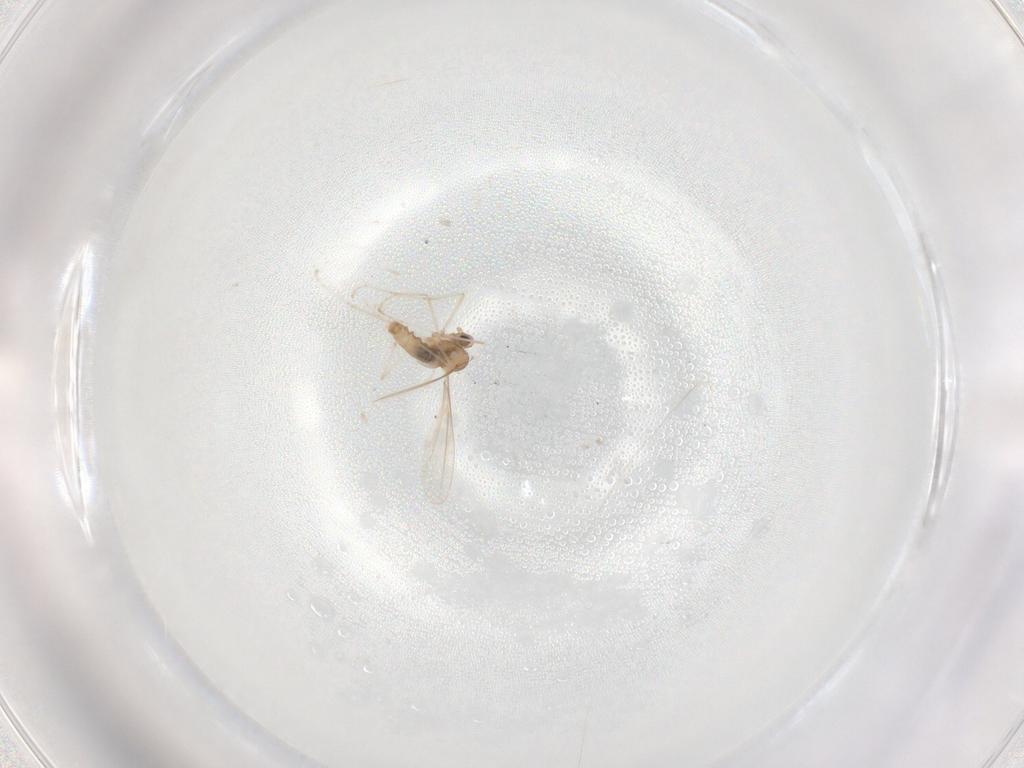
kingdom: Animalia
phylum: Arthropoda
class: Insecta
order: Diptera
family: Cecidomyiidae
